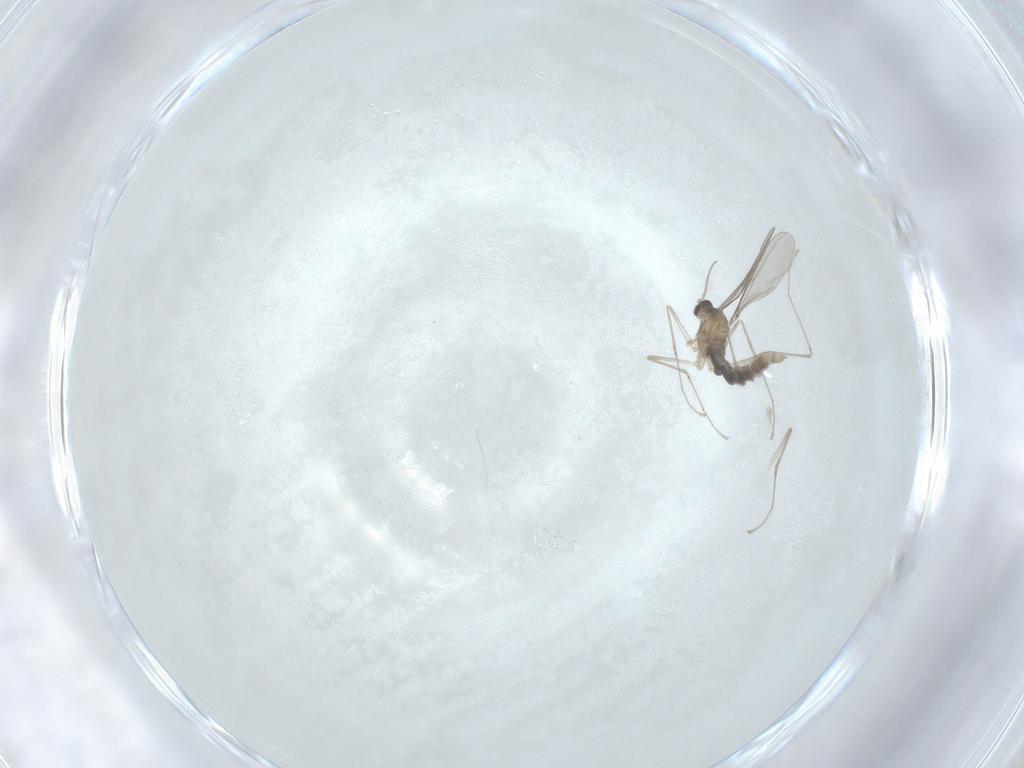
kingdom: Animalia
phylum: Arthropoda
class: Insecta
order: Diptera
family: Cecidomyiidae
